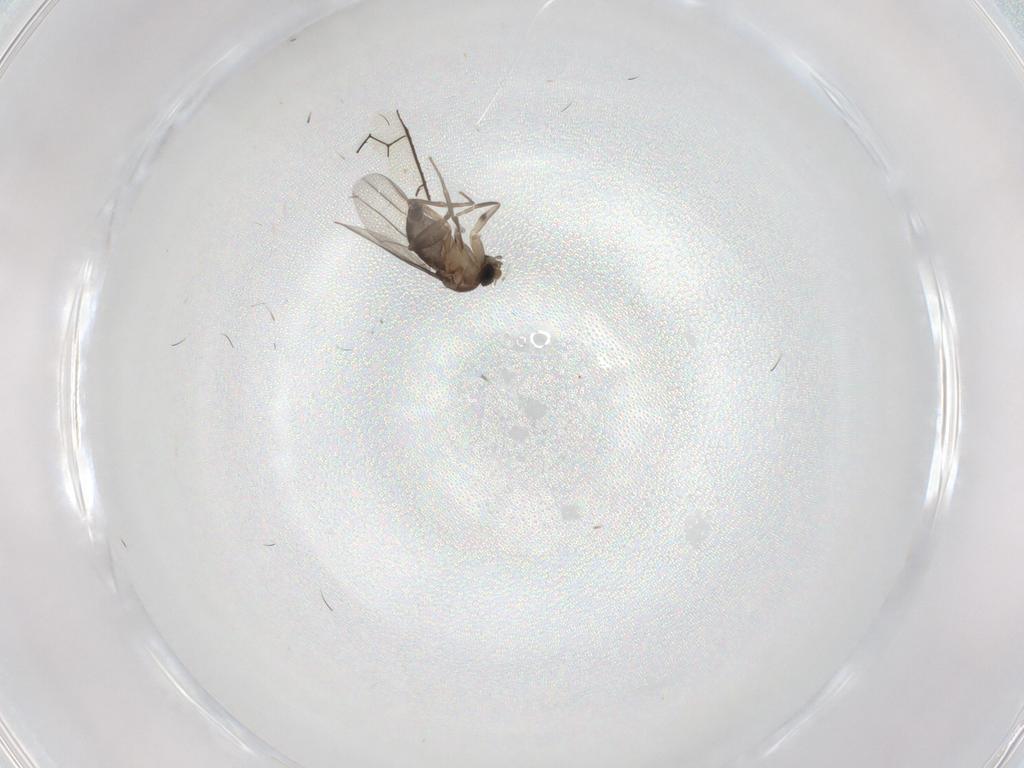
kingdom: Animalia
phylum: Arthropoda
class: Insecta
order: Diptera
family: Phoridae
